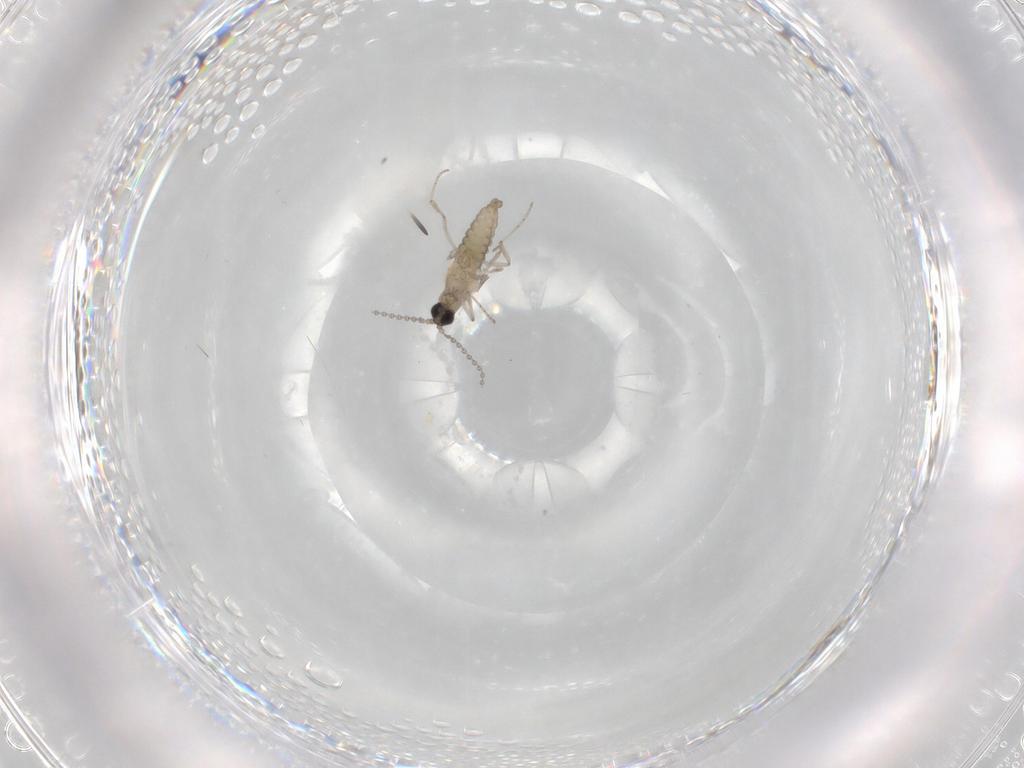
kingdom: Animalia
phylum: Arthropoda
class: Insecta
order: Diptera
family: Cecidomyiidae
